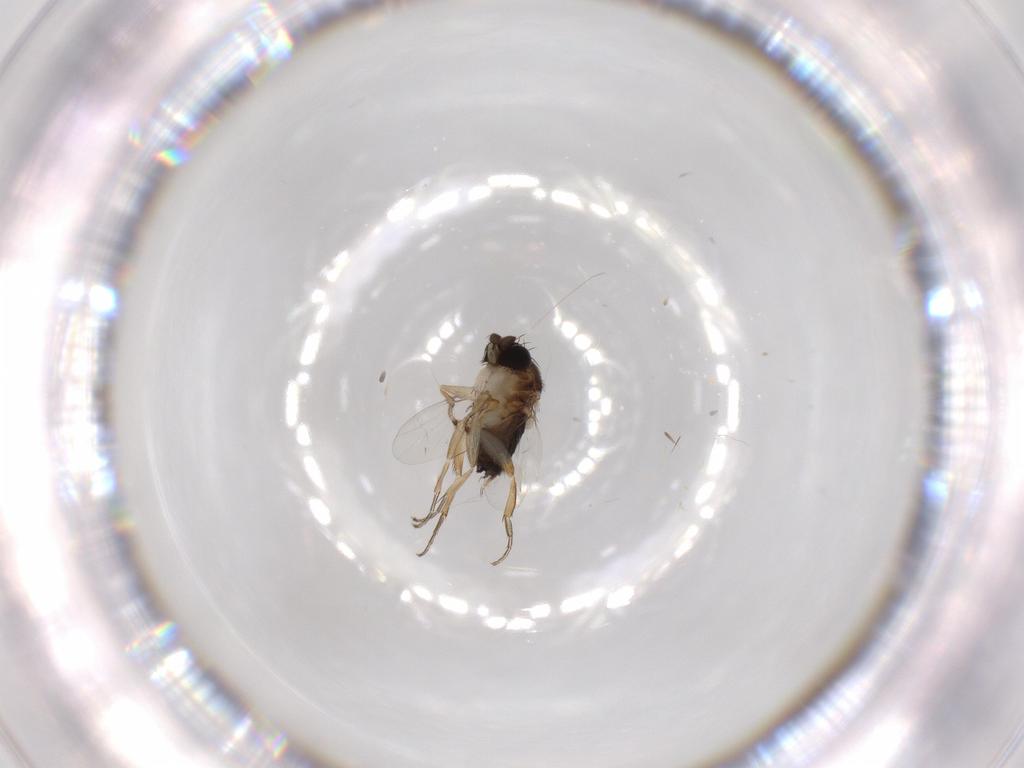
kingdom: Animalia
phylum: Arthropoda
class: Insecta
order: Diptera
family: Phoridae
